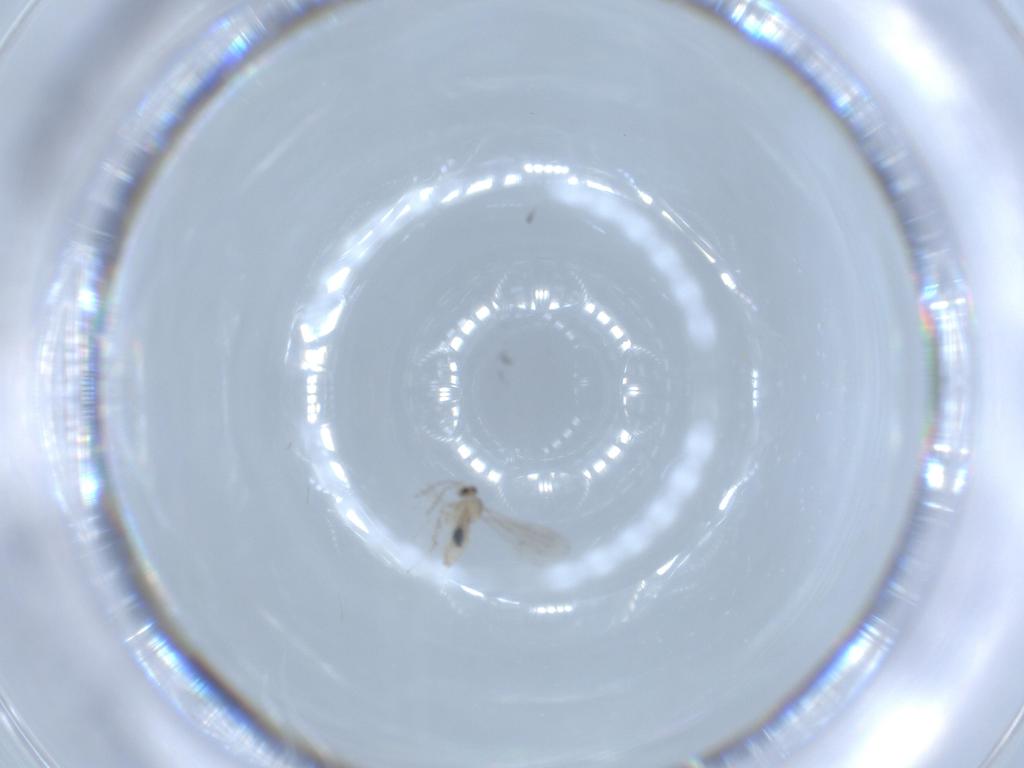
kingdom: Animalia
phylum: Arthropoda
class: Insecta
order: Diptera
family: Cecidomyiidae
